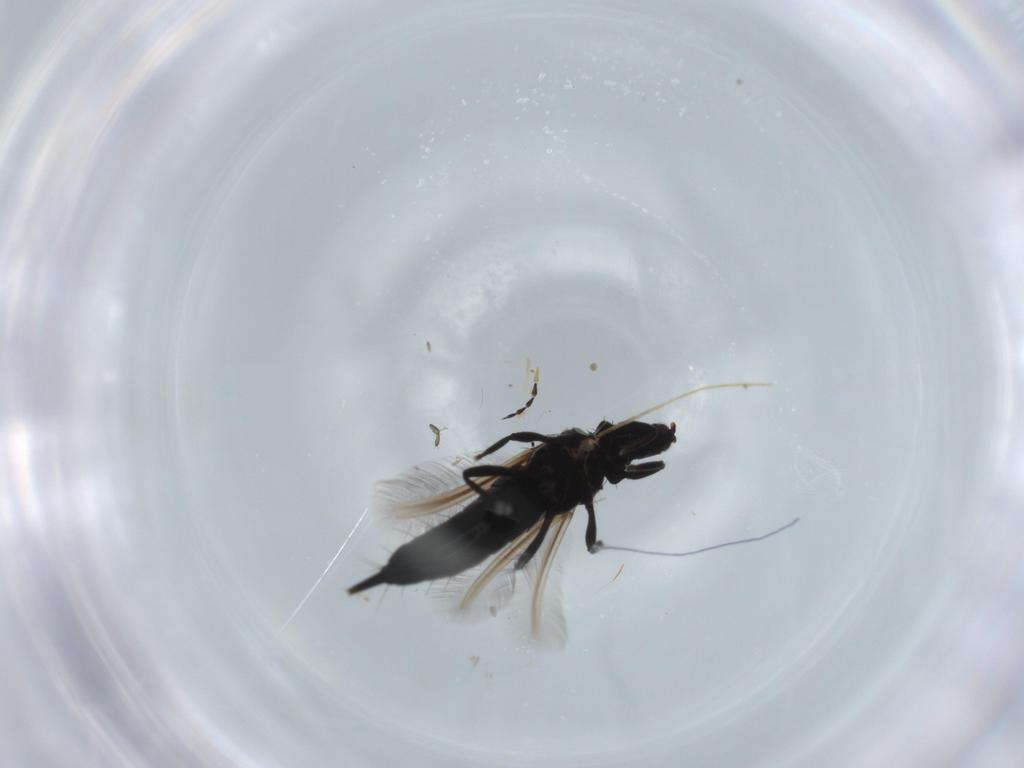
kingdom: Animalia
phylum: Arthropoda
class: Insecta
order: Thysanoptera
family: Phlaeothripidae
